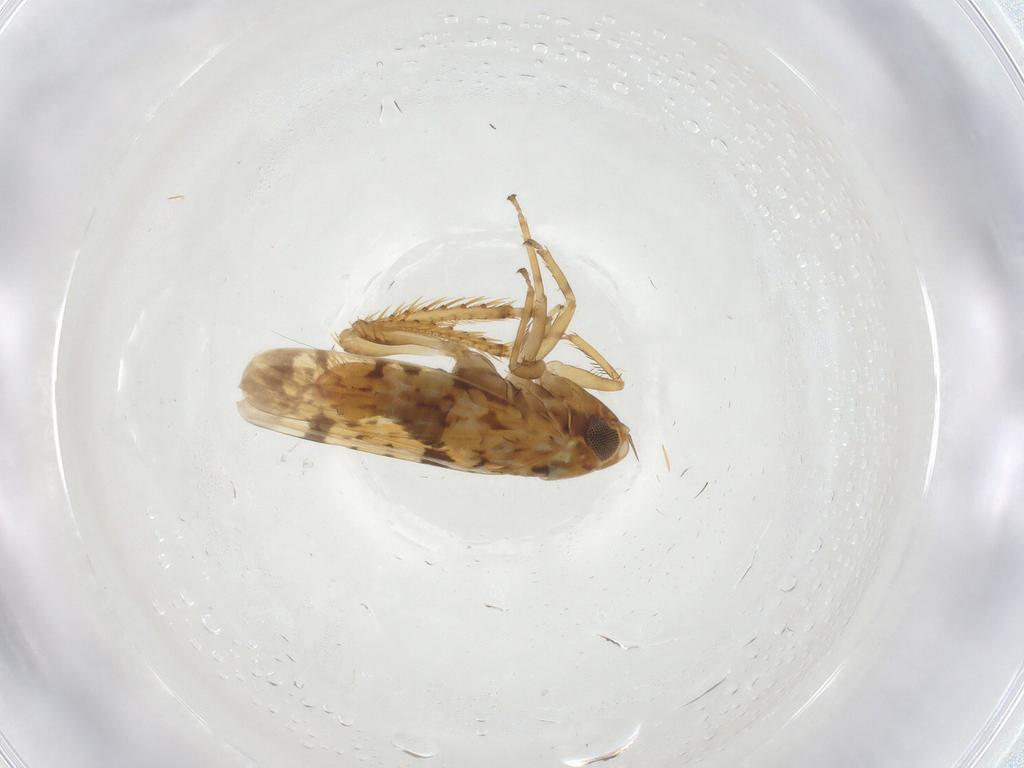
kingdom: Animalia
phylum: Arthropoda
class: Insecta
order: Hemiptera
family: Cicadellidae
